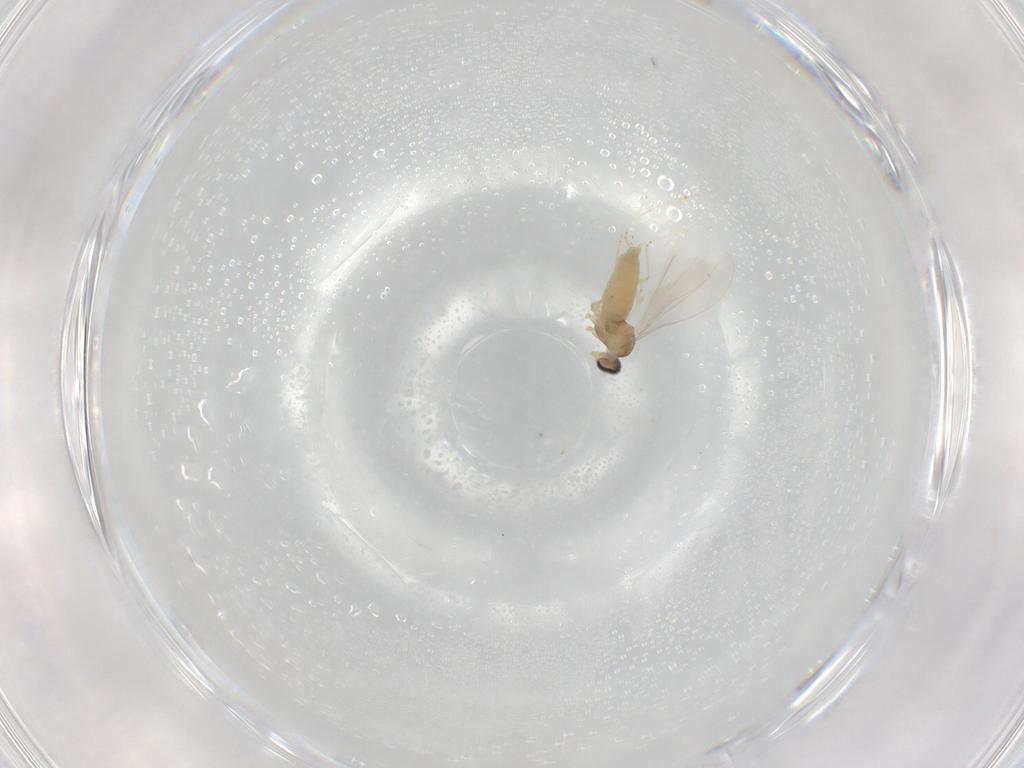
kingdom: Animalia
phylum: Arthropoda
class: Insecta
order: Diptera
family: Cecidomyiidae
